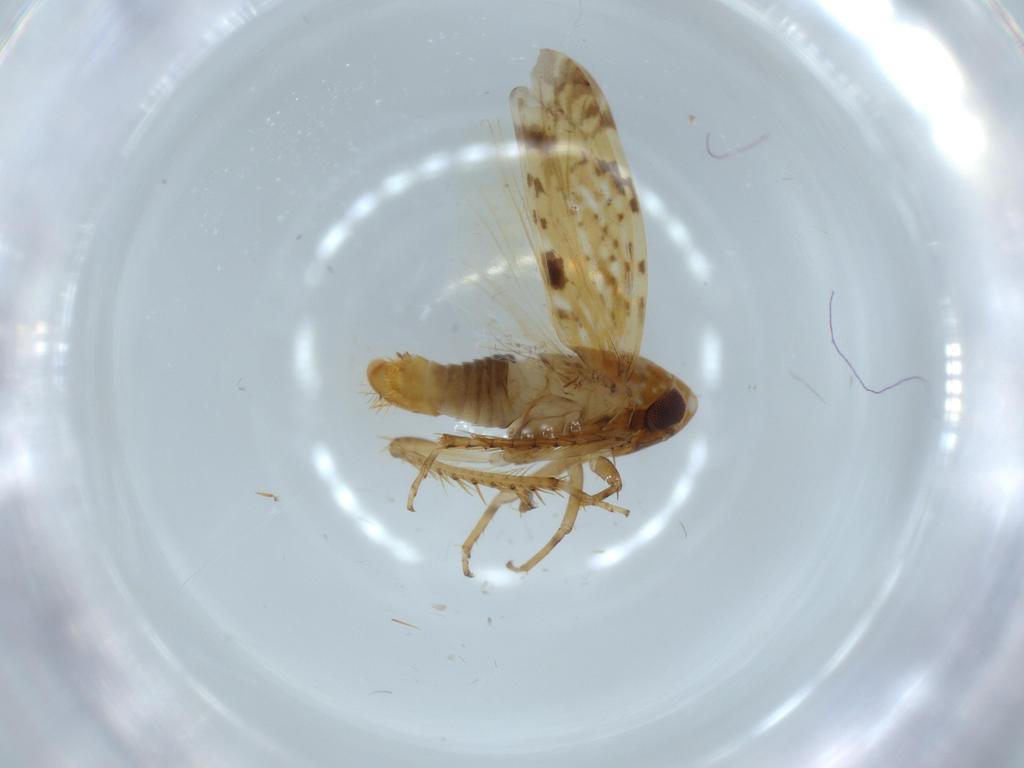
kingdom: Animalia
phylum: Arthropoda
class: Insecta
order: Hemiptera
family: Cicadellidae
